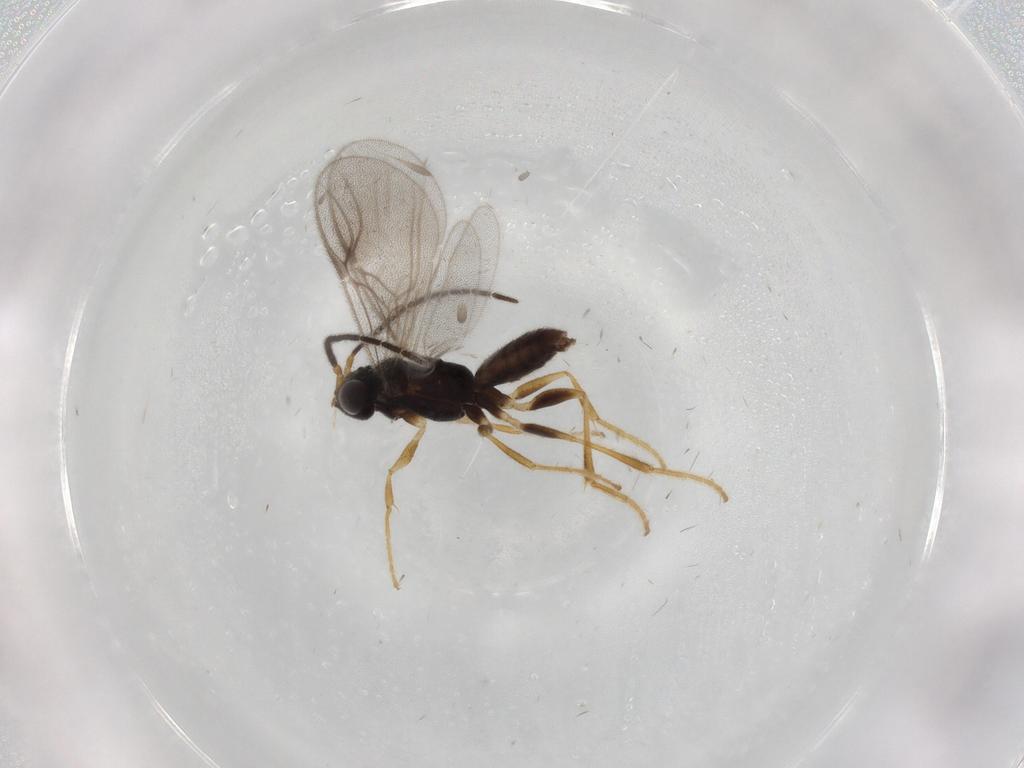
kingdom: Animalia
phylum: Arthropoda
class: Insecta
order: Hymenoptera
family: Dryinidae
